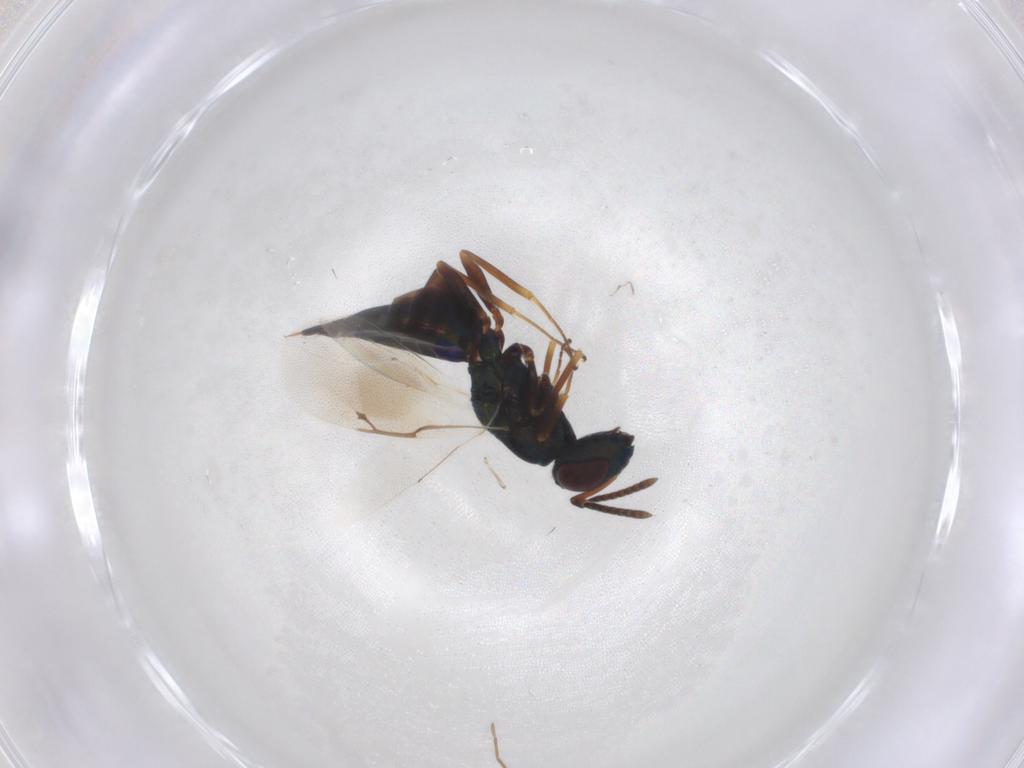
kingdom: Animalia
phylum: Arthropoda
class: Insecta
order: Hymenoptera
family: Pteromalidae
